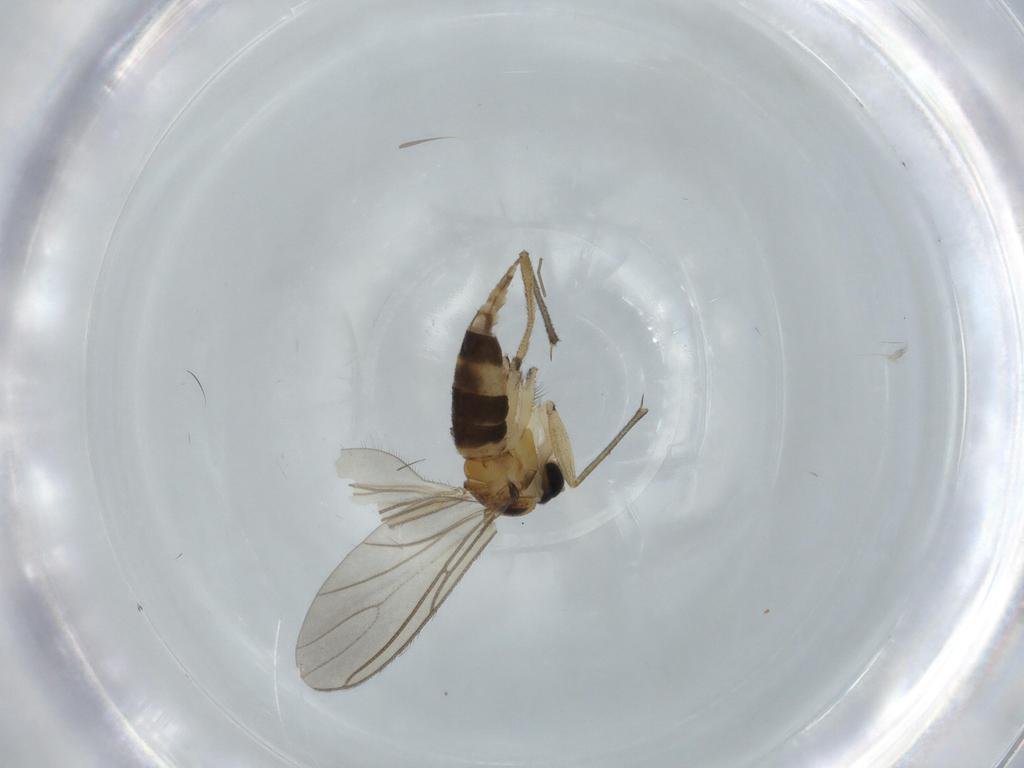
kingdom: Animalia
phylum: Arthropoda
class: Insecta
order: Diptera
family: Cecidomyiidae
